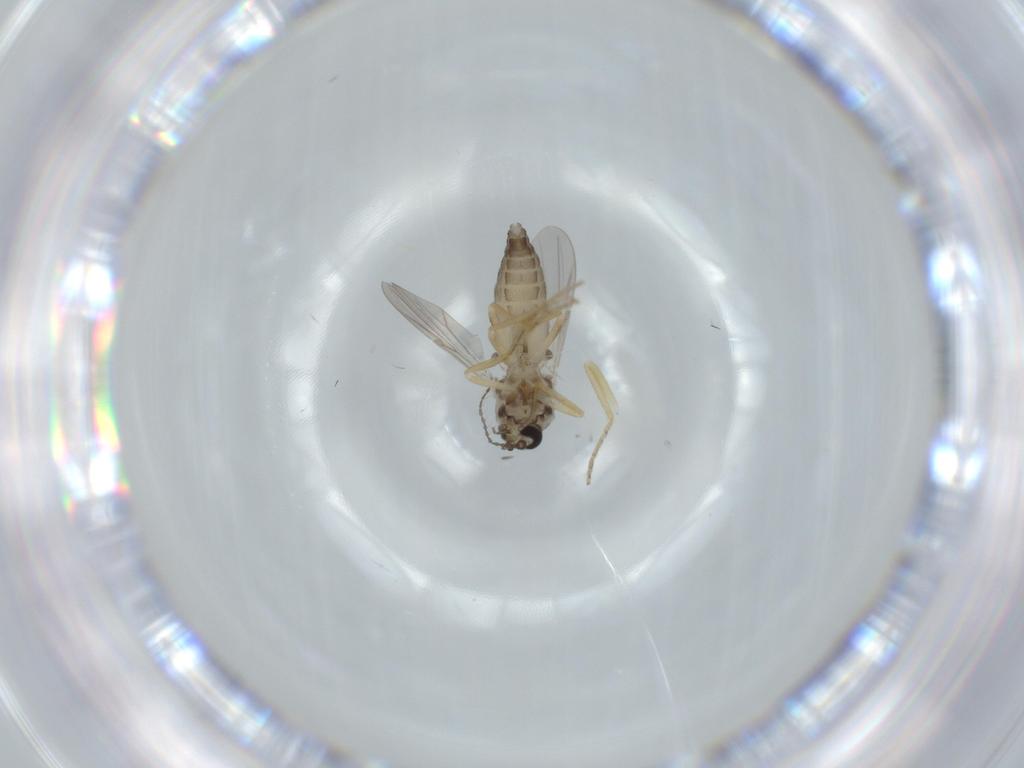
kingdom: Animalia
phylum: Arthropoda
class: Insecta
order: Diptera
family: Ceratopogonidae
